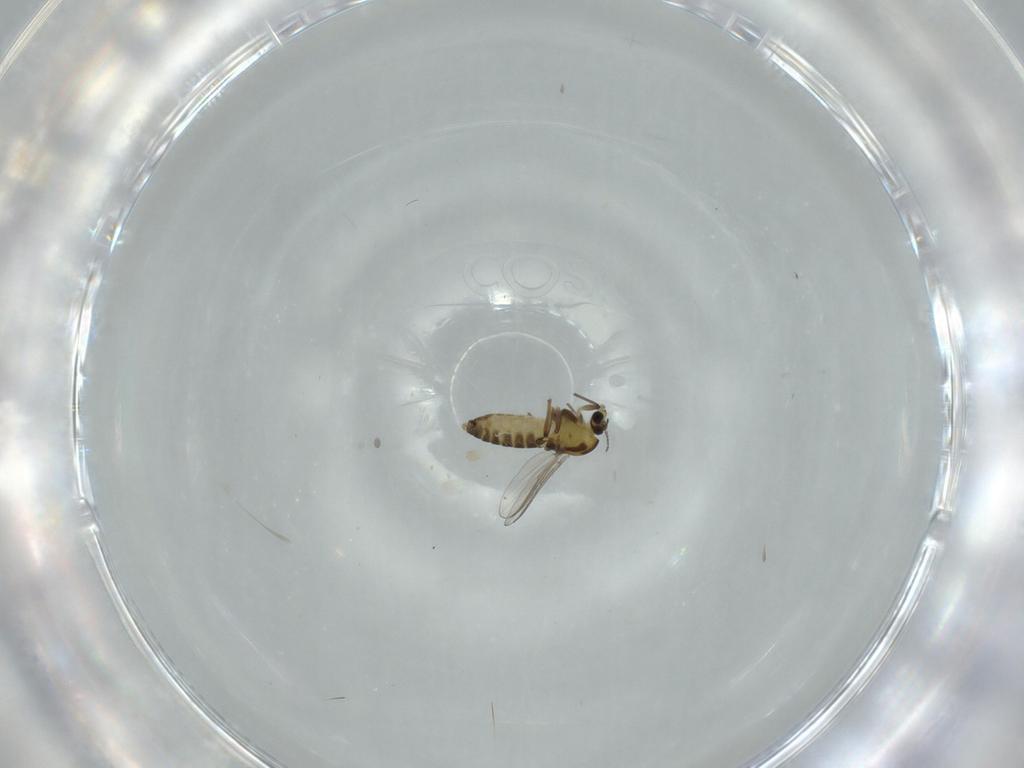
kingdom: Animalia
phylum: Arthropoda
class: Insecta
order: Diptera
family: Chironomidae
